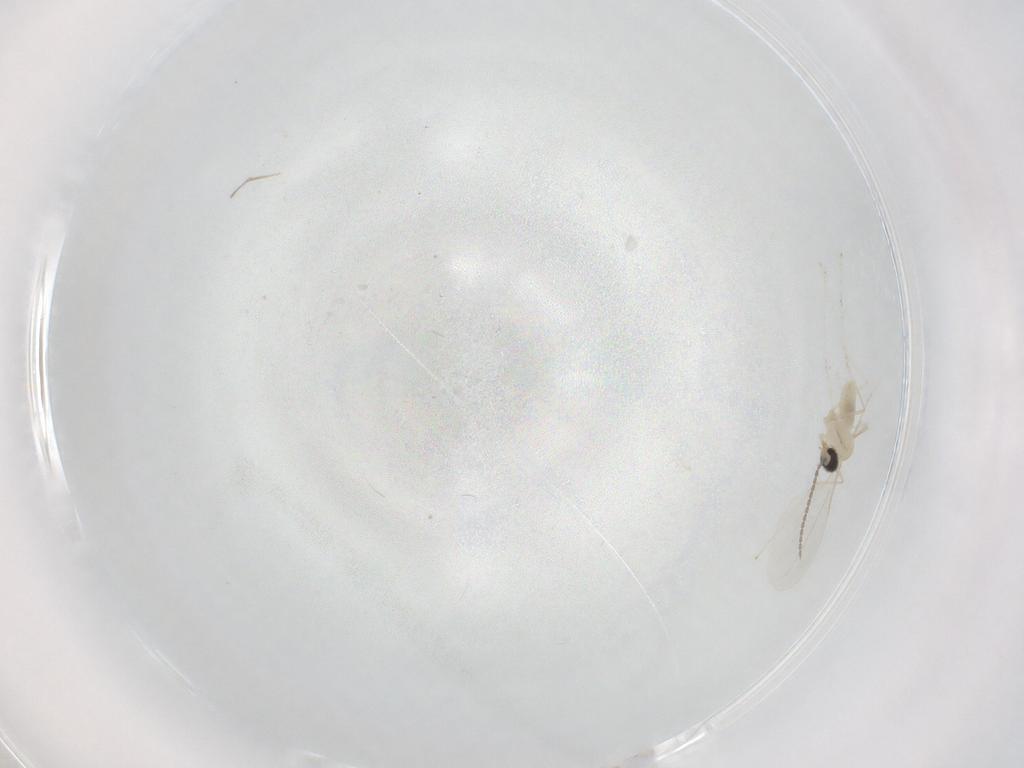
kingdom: Animalia
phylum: Arthropoda
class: Insecta
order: Diptera
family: Cecidomyiidae
